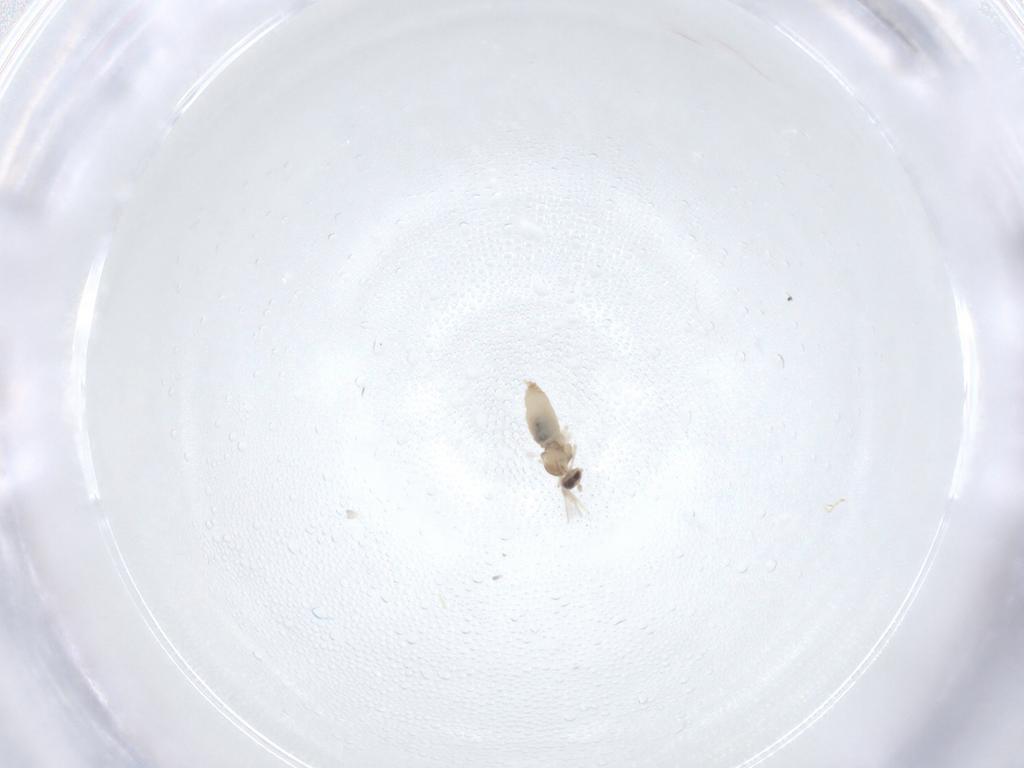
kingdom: Animalia
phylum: Arthropoda
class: Insecta
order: Diptera
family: Cecidomyiidae
